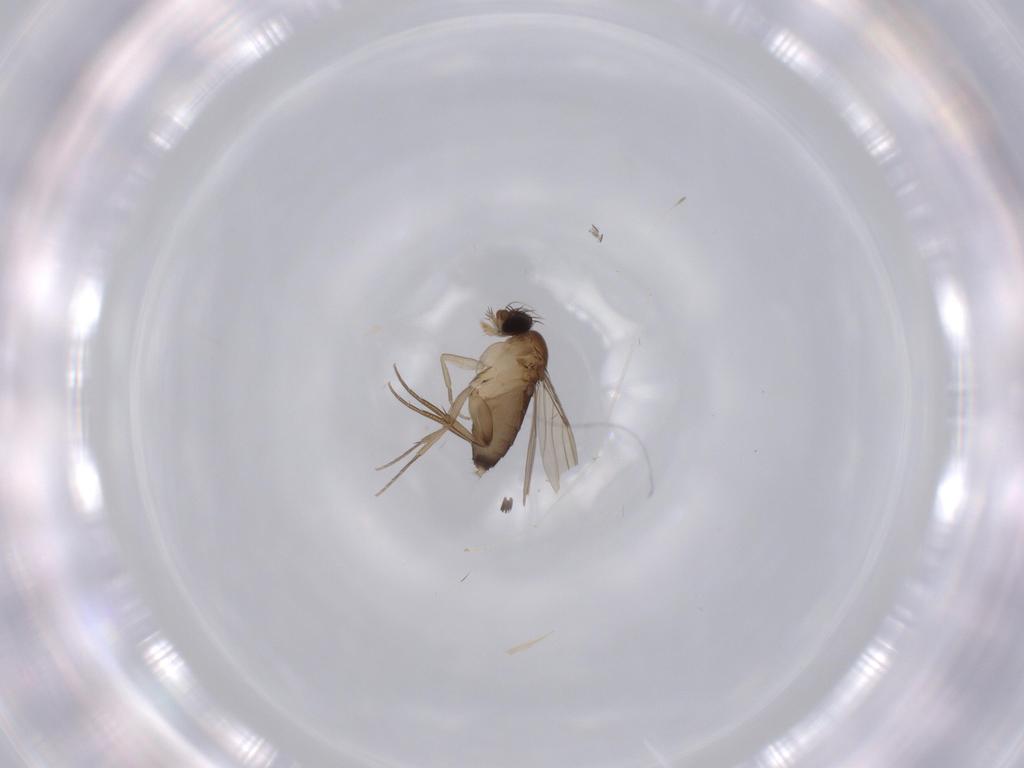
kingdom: Animalia
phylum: Arthropoda
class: Insecta
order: Diptera
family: Phoridae
